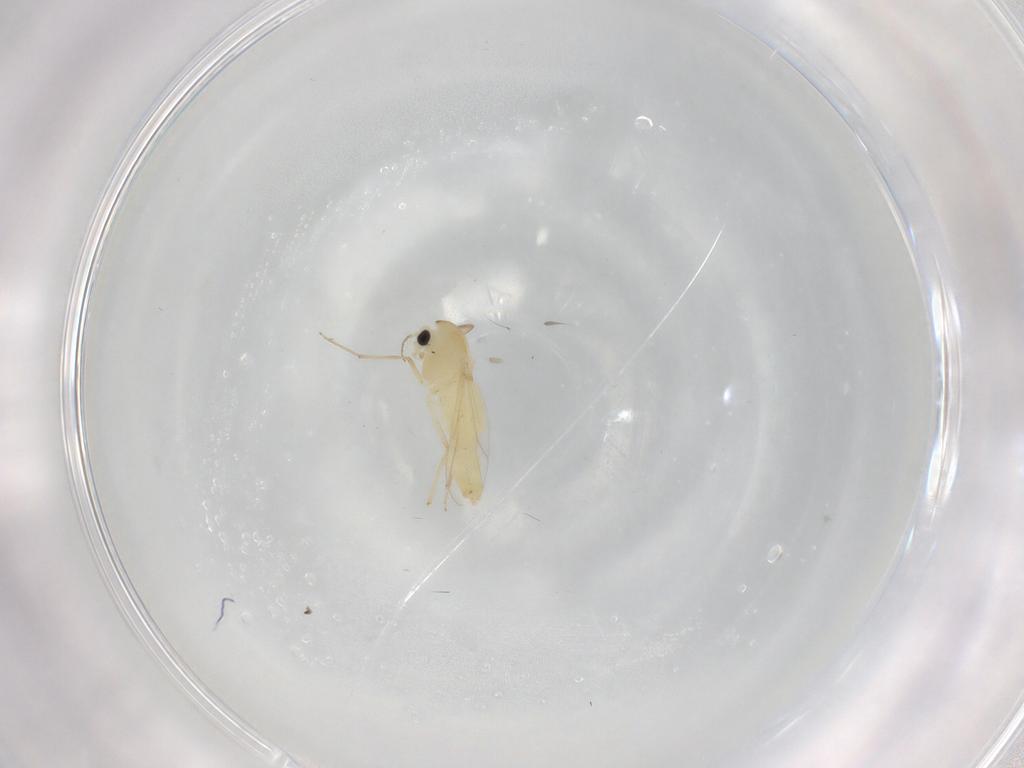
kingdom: Animalia
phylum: Arthropoda
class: Insecta
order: Diptera
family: Chironomidae
